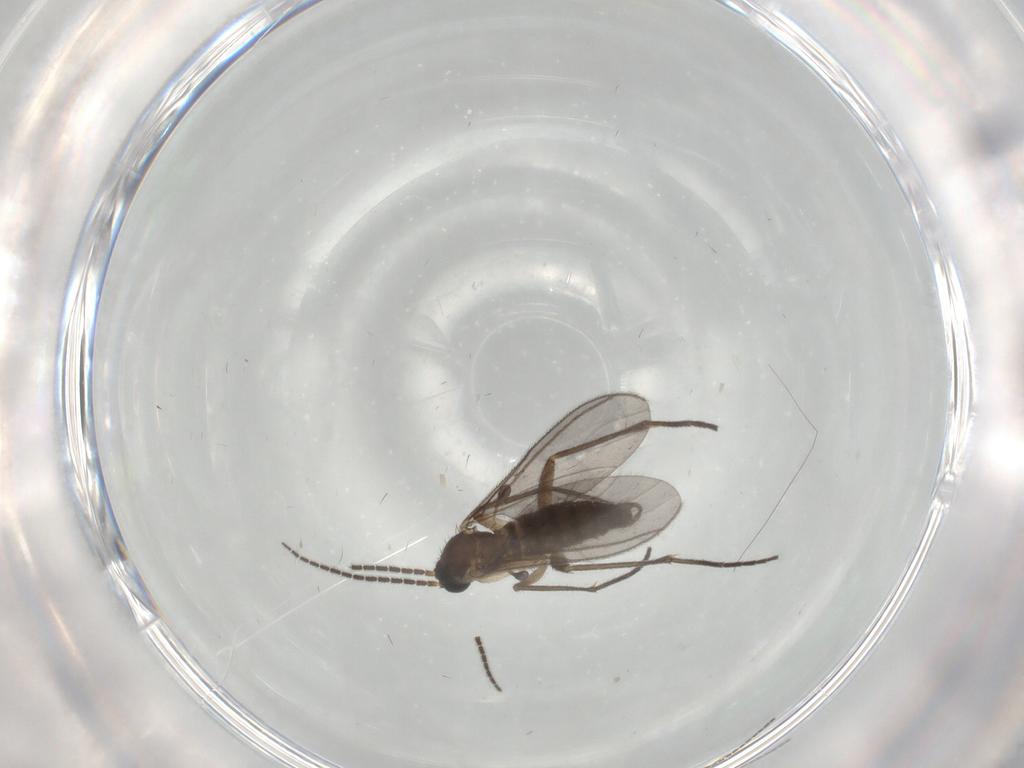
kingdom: Animalia
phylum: Arthropoda
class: Insecta
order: Diptera
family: Sciaridae
